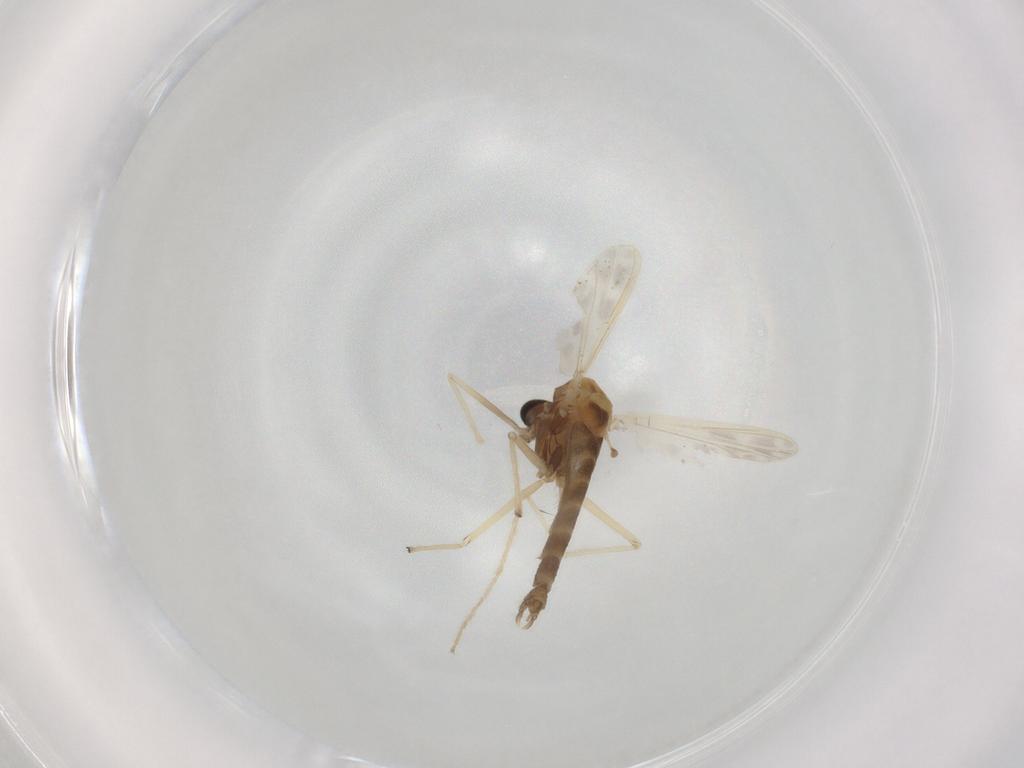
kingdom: Animalia
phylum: Arthropoda
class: Insecta
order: Diptera
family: Chironomidae
